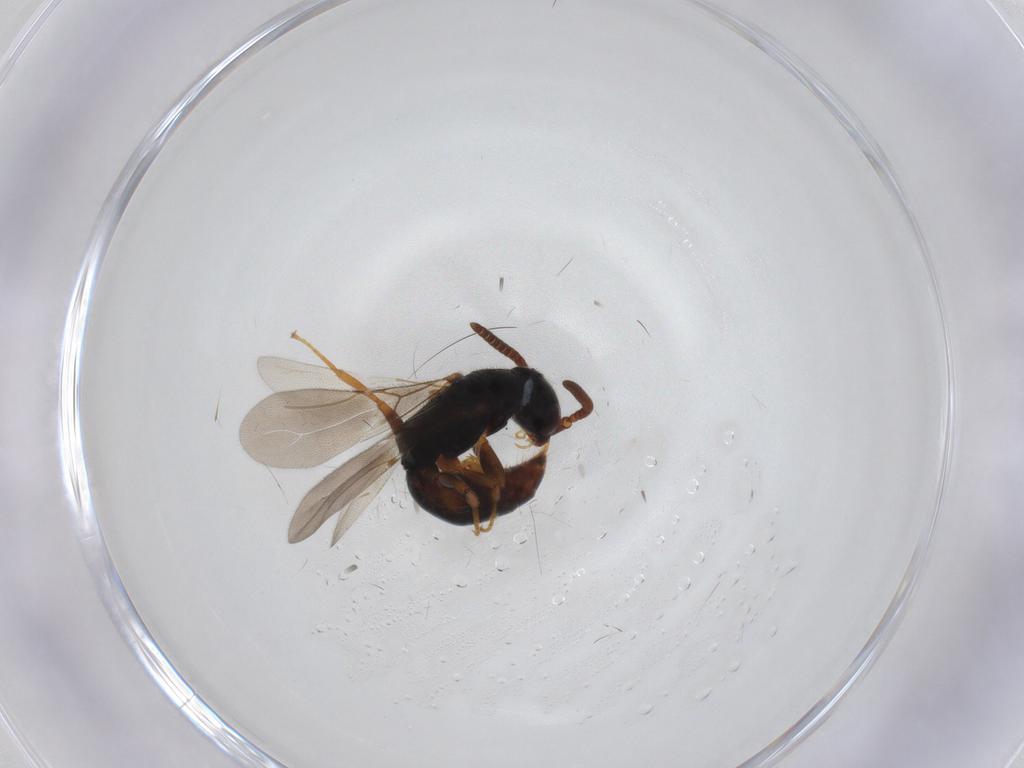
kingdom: Animalia
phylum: Arthropoda
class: Insecta
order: Hymenoptera
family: Bethylidae
